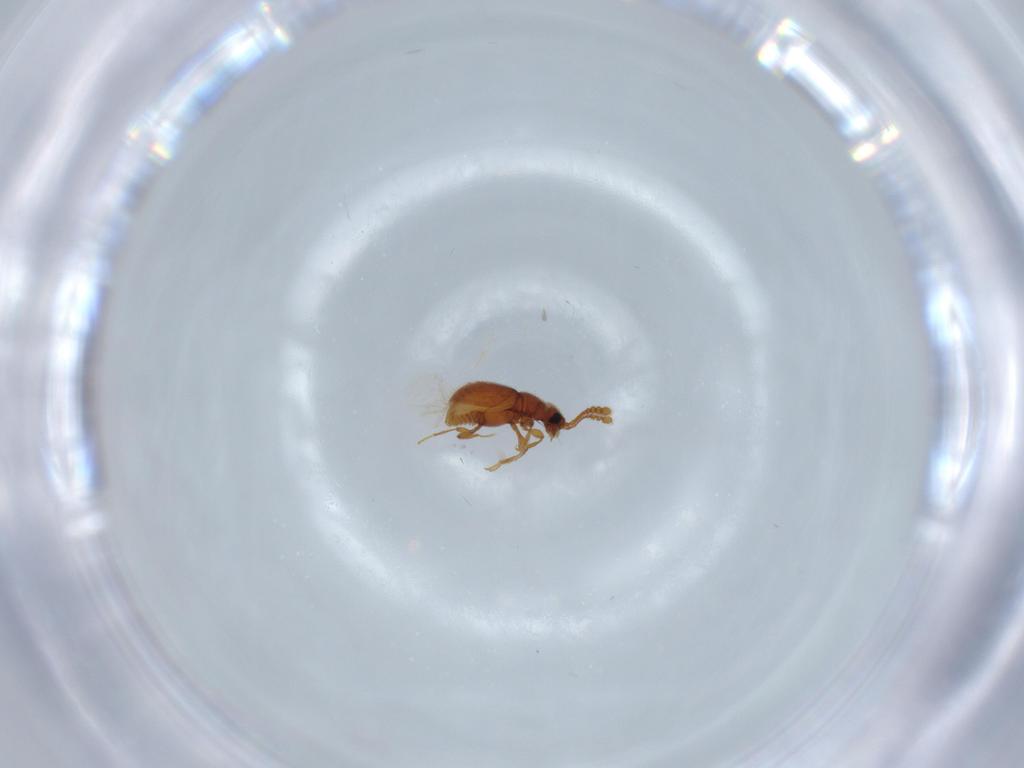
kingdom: Animalia
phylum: Arthropoda
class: Insecta
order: Coleoptera
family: Staphylinidae
